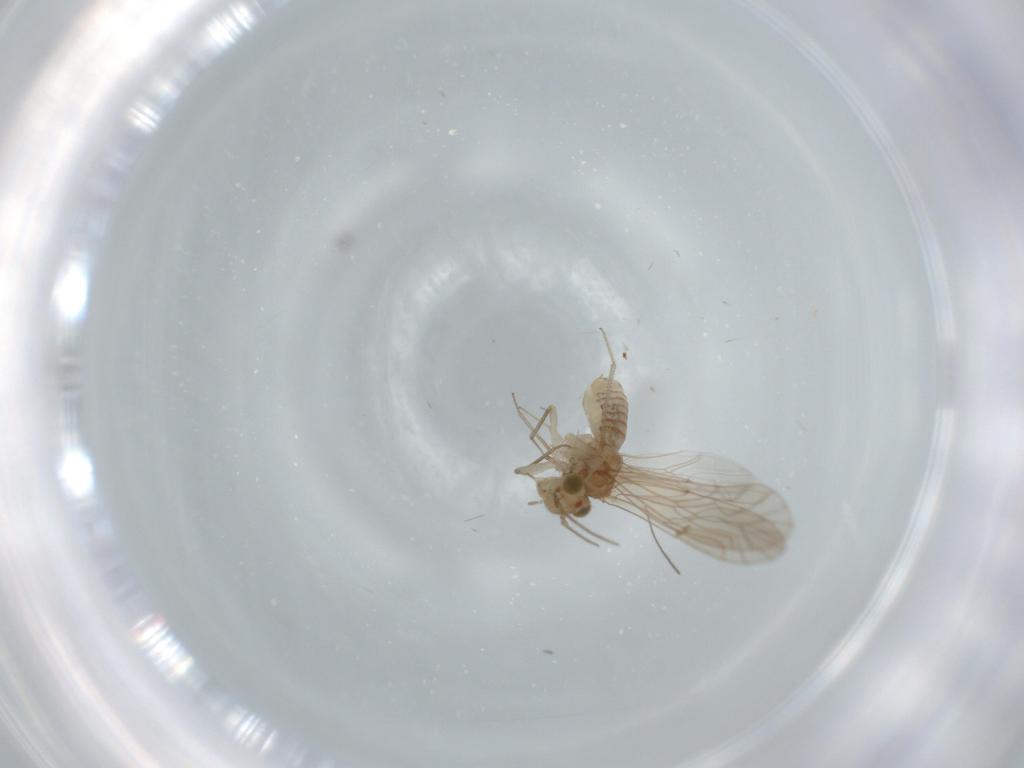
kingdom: Animalia
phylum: Arthropoda
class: Insecta
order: Psocodea
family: Lachesillidae
